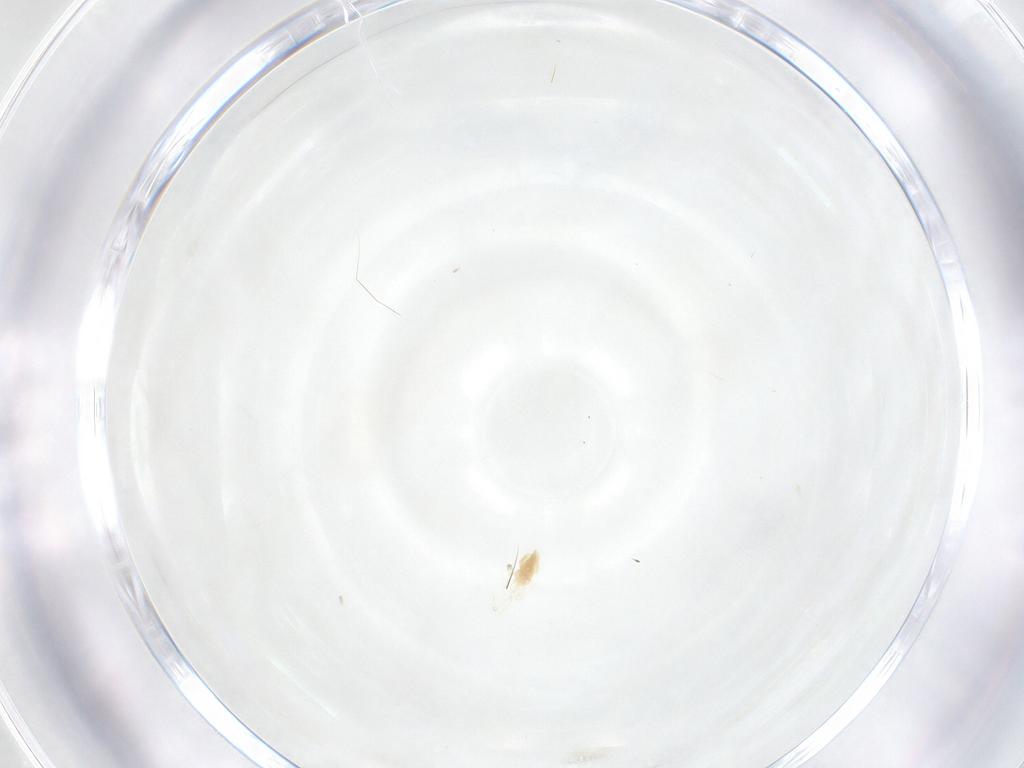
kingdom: Animalia
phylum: Arthropoda
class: Arachnida
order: Trombidiformes
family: Eupodidae
